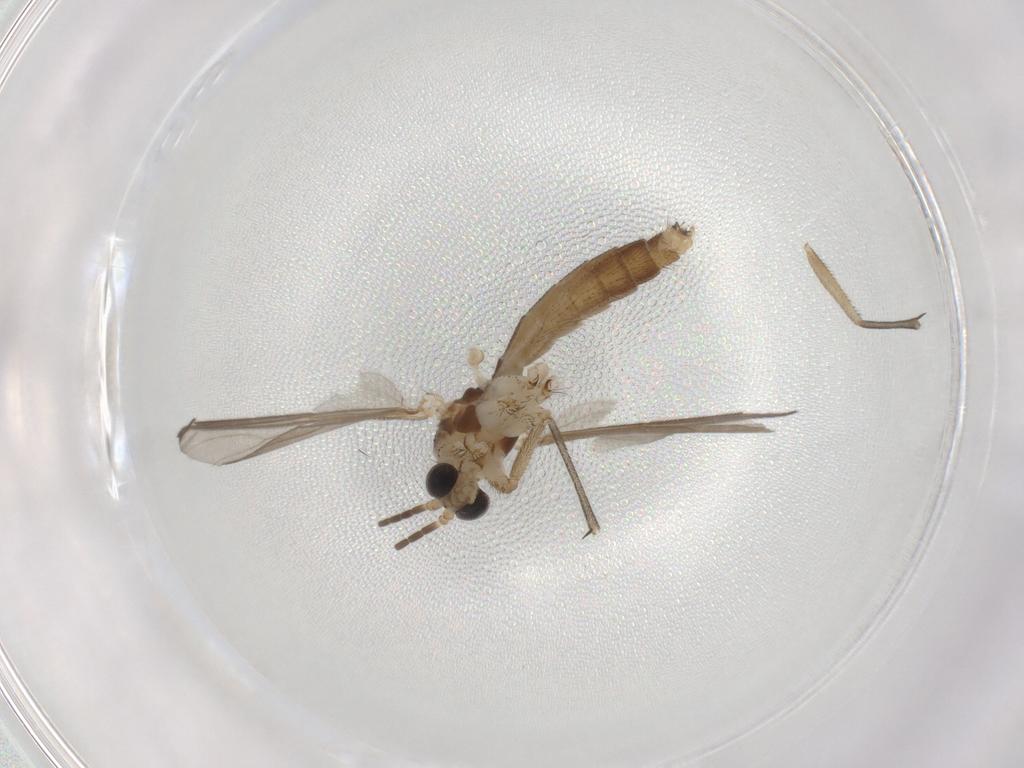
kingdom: Animalia
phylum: Arthropoda
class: Insecta
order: Diptera
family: Mycetophilidae
